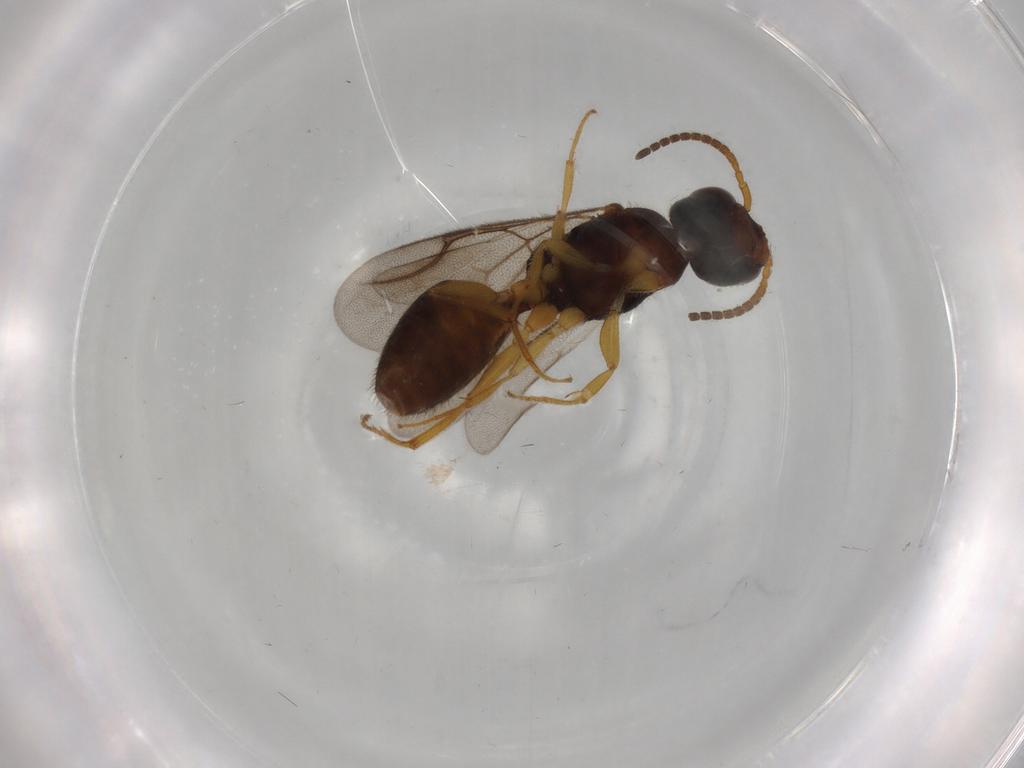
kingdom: Animalia
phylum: Arthropoda
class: Insecta
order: Hymenoptera
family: Bethylidae
